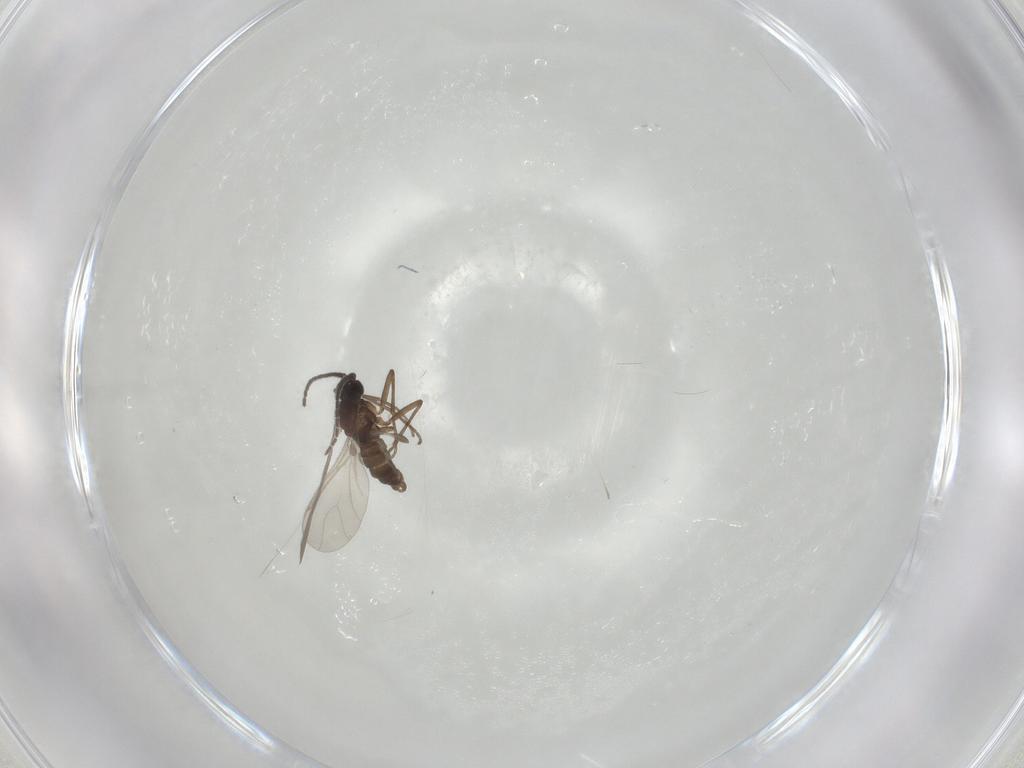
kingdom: Animalia
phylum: Arthropoda
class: Insecta
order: Diptera
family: Sciaridae
